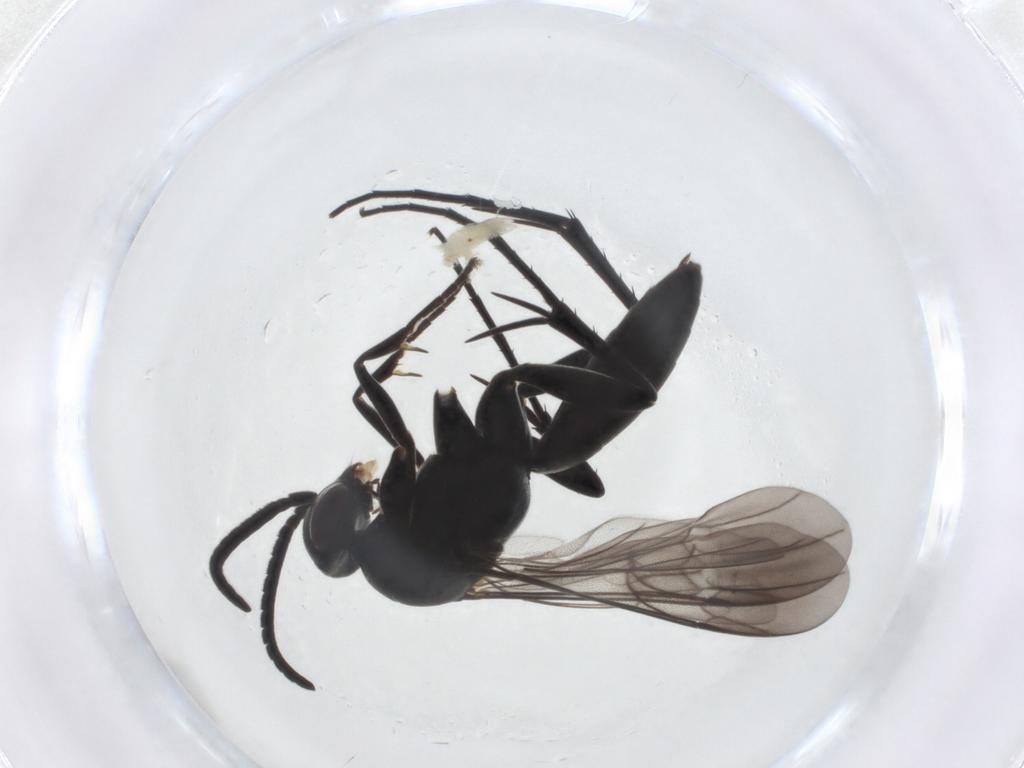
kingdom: Animalia
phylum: Arthropoda
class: Insecta
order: Hymenoptera
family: Pompilidae
